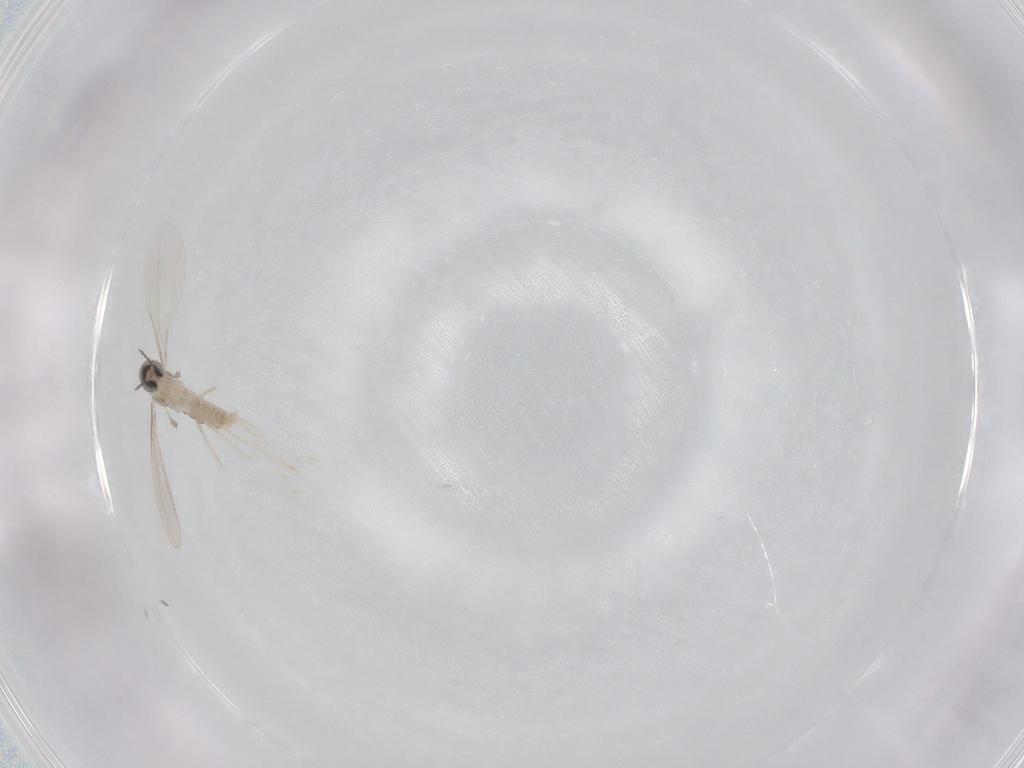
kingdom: Animalia
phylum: Arthropoda
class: Insecta
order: Diptera
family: Cecidomyiidae
